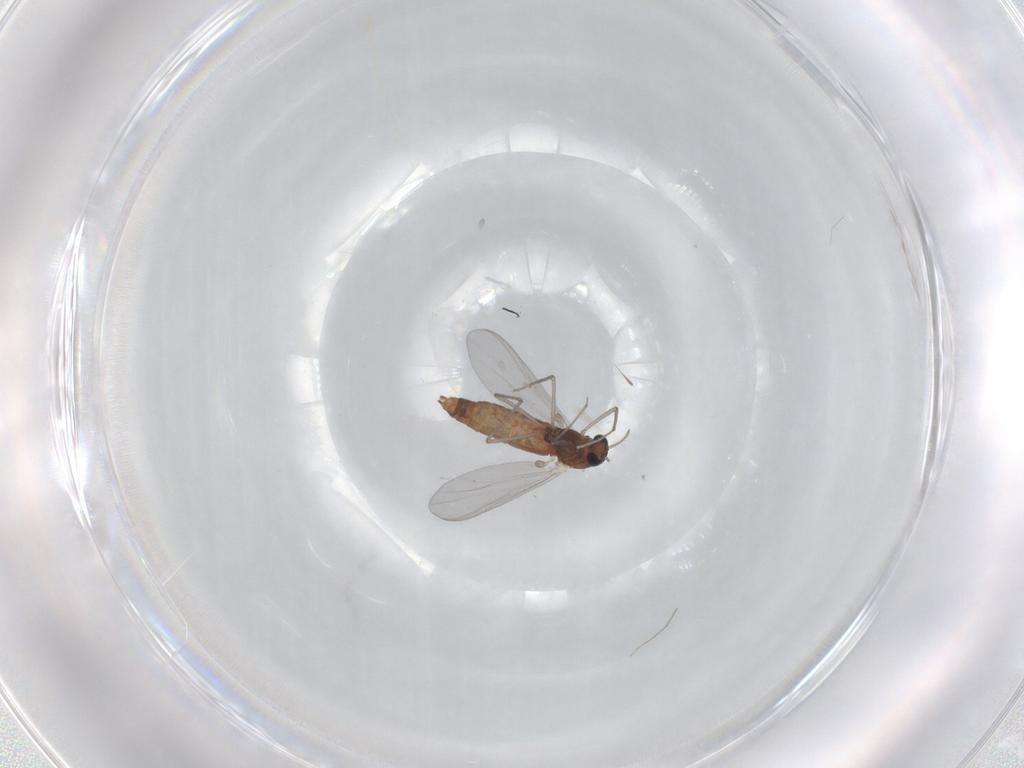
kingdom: Animalia
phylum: Arthropoda
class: Insecta
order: Diptera
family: Chironomidae
